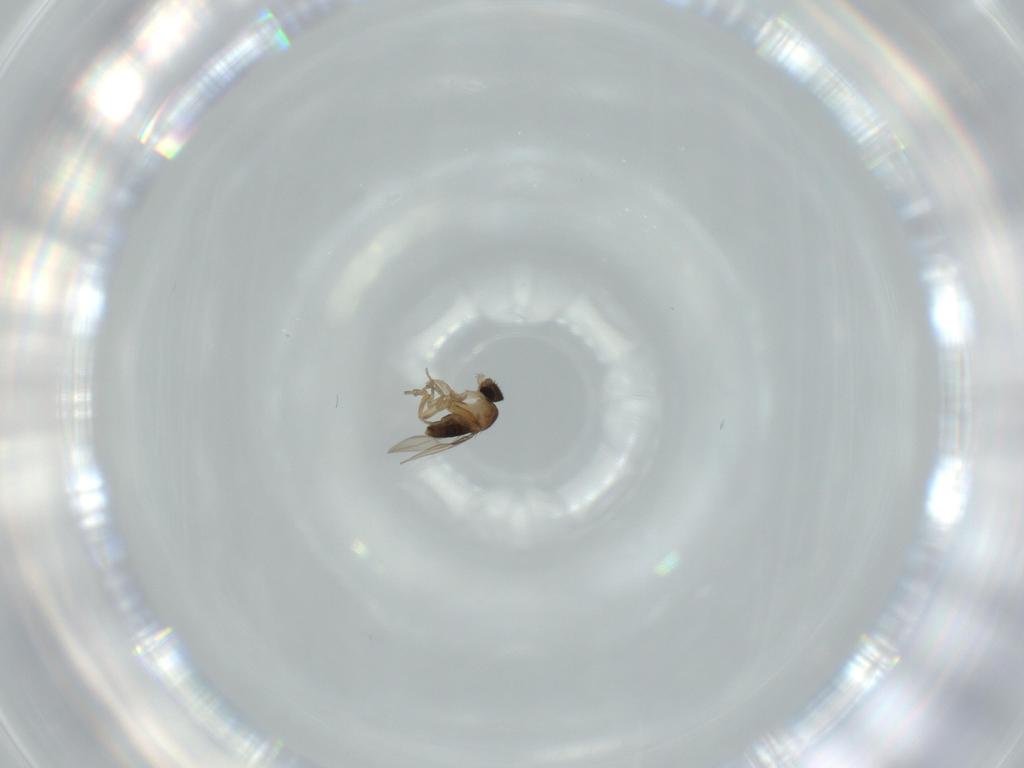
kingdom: Animalia
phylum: Arthropoda
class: Insecta
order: Diptera
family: Phoridae
